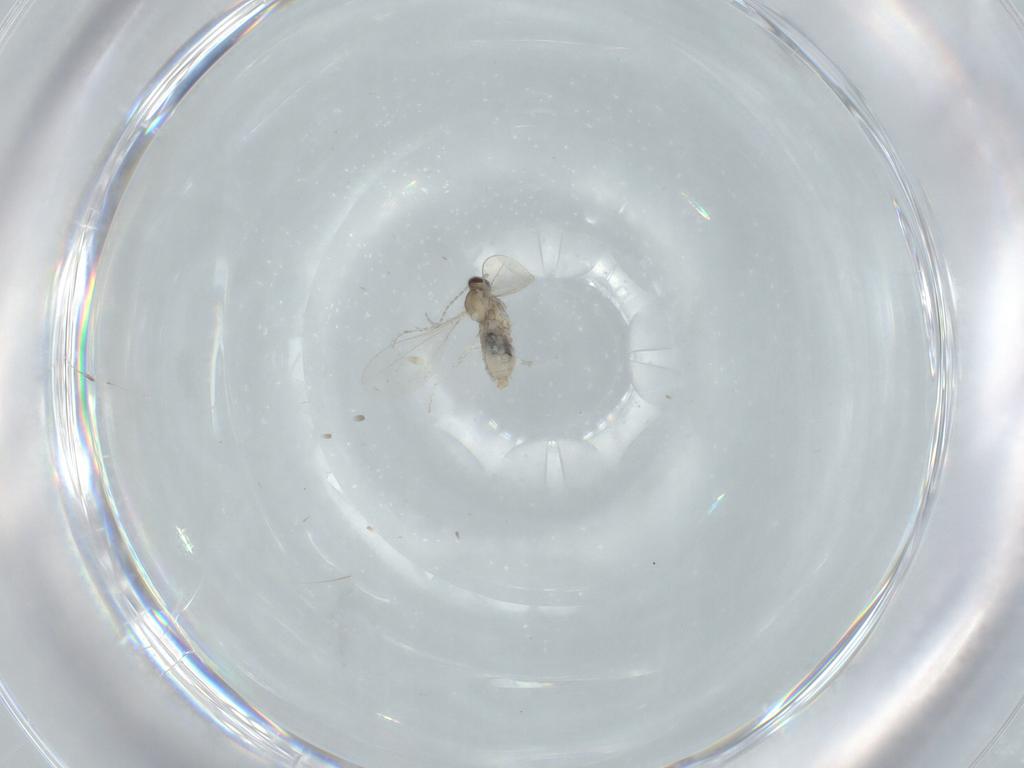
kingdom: Animalia
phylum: Arthropoda
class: Insecta
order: Diptera
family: Cecidomyiidae
